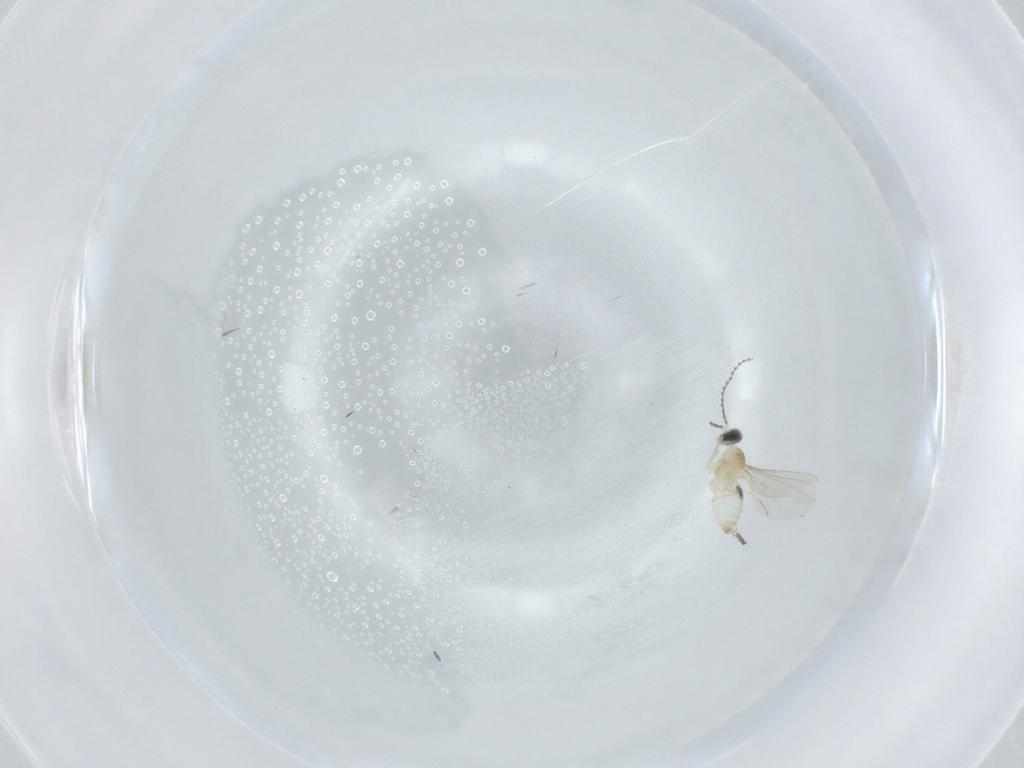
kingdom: Animalia
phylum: Arthropoda
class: Insecta
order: Diptera
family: Cecidomyiidae
